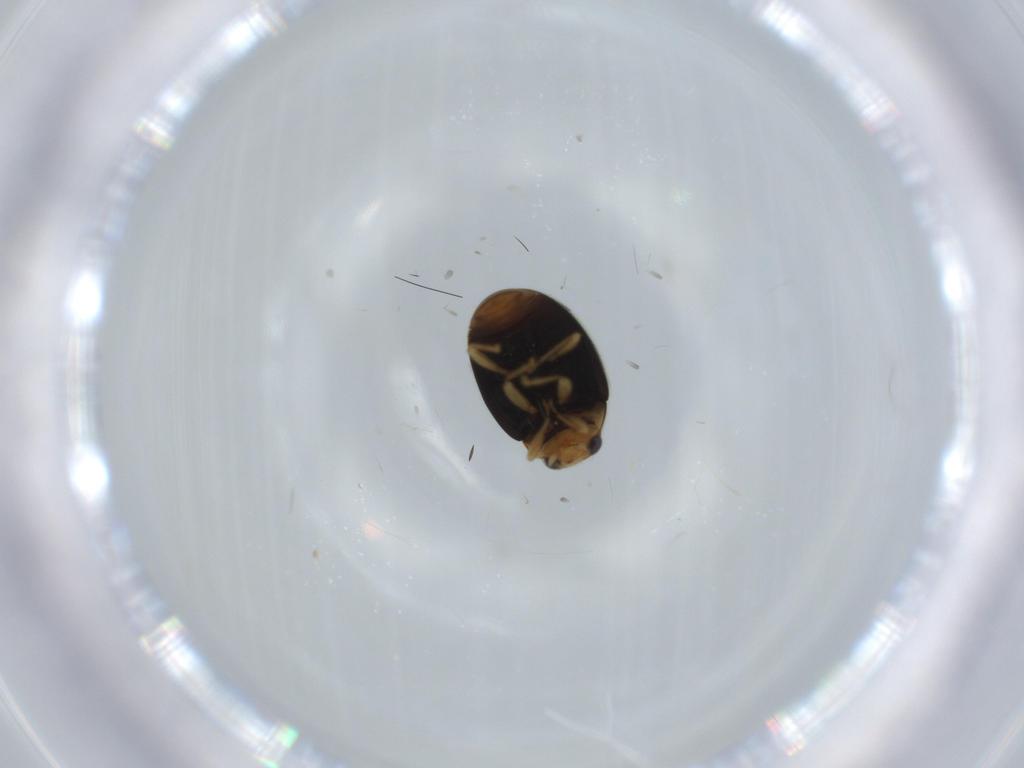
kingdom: Animalia
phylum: Arthropoda
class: Insecta
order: Coleoptera
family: Coccinellidae
